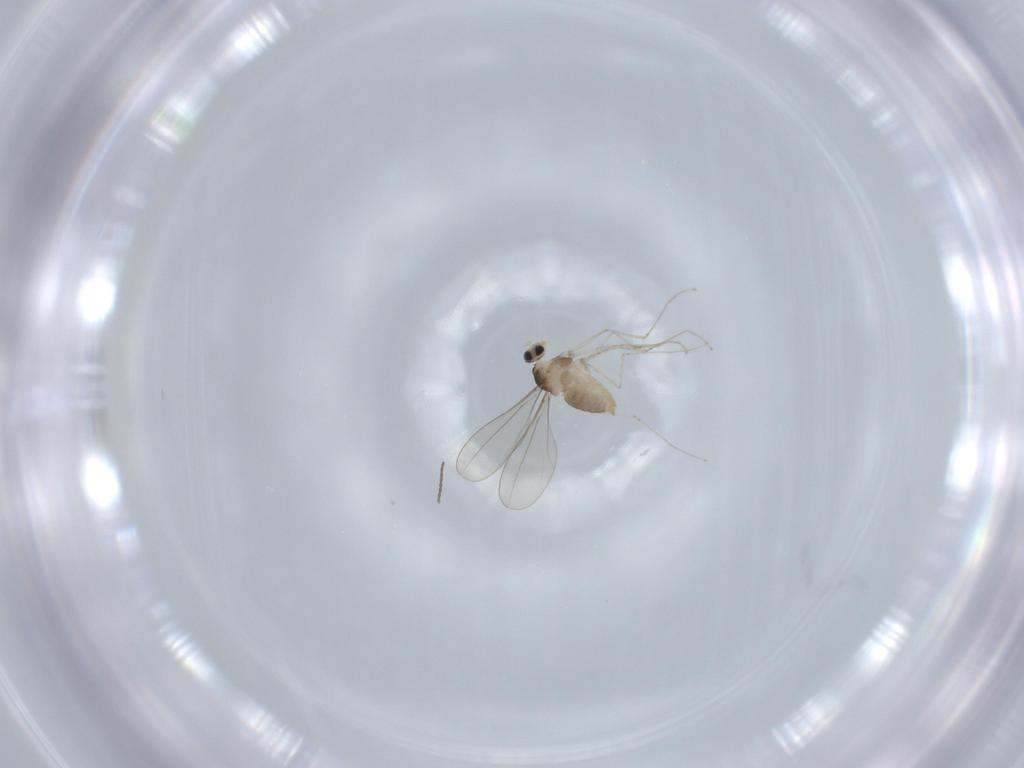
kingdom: Animalia
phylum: Arthropoda
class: Insecta
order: Diptera
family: Cecidomyiidae
